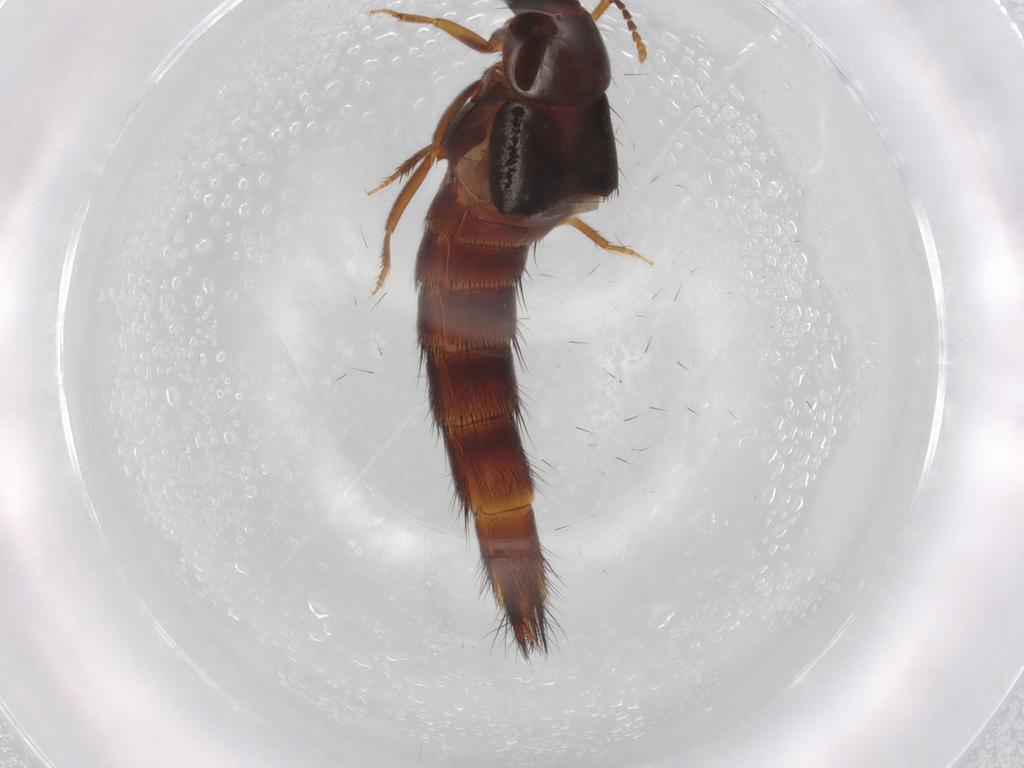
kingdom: Animalia
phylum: Arthropoda
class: Insecta
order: Coleoptera
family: Staphylinidae
